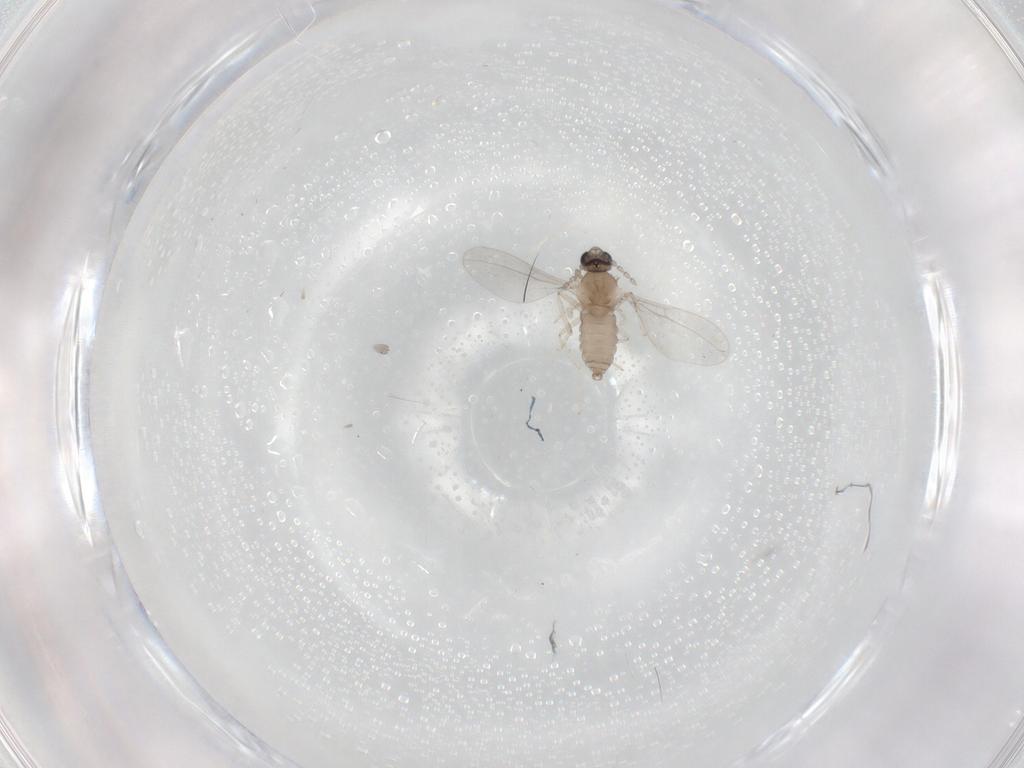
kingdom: Animalia
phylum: Arthropoda
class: Insecta
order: Diptera
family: Cecidomyiidae
